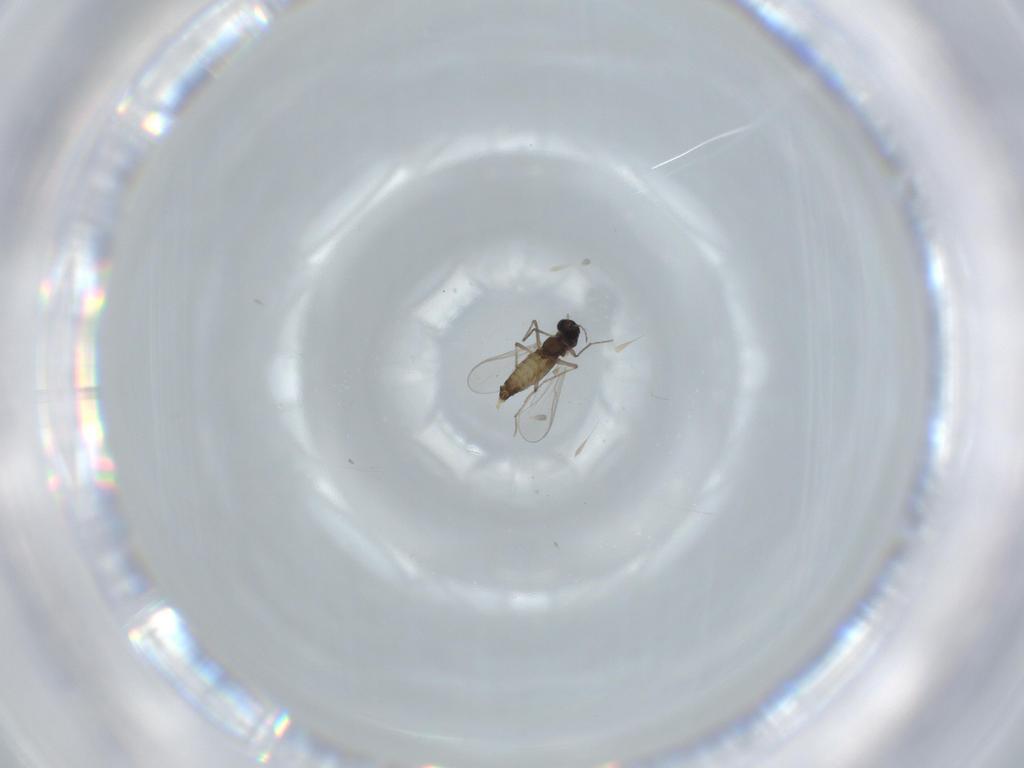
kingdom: Animalia
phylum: Arthropoda
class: Insecta
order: Diptera
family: Chironomidae
